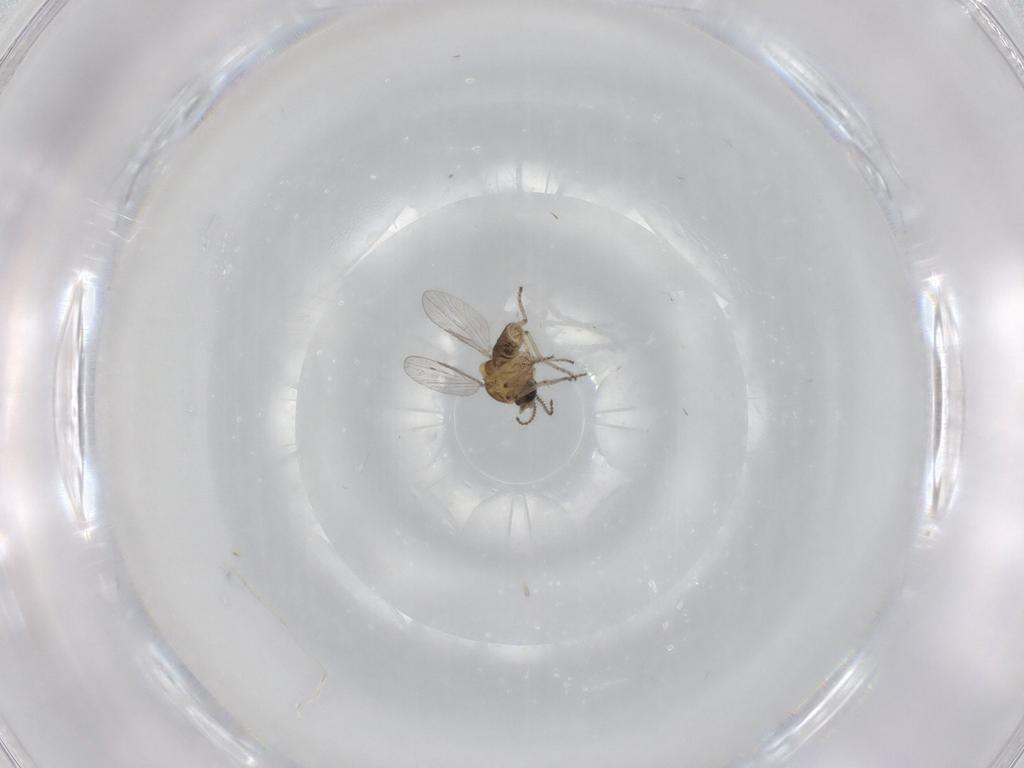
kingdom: Animalia
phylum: Arthropoda
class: Insecta
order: Diptera
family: Ceratopogonidae
